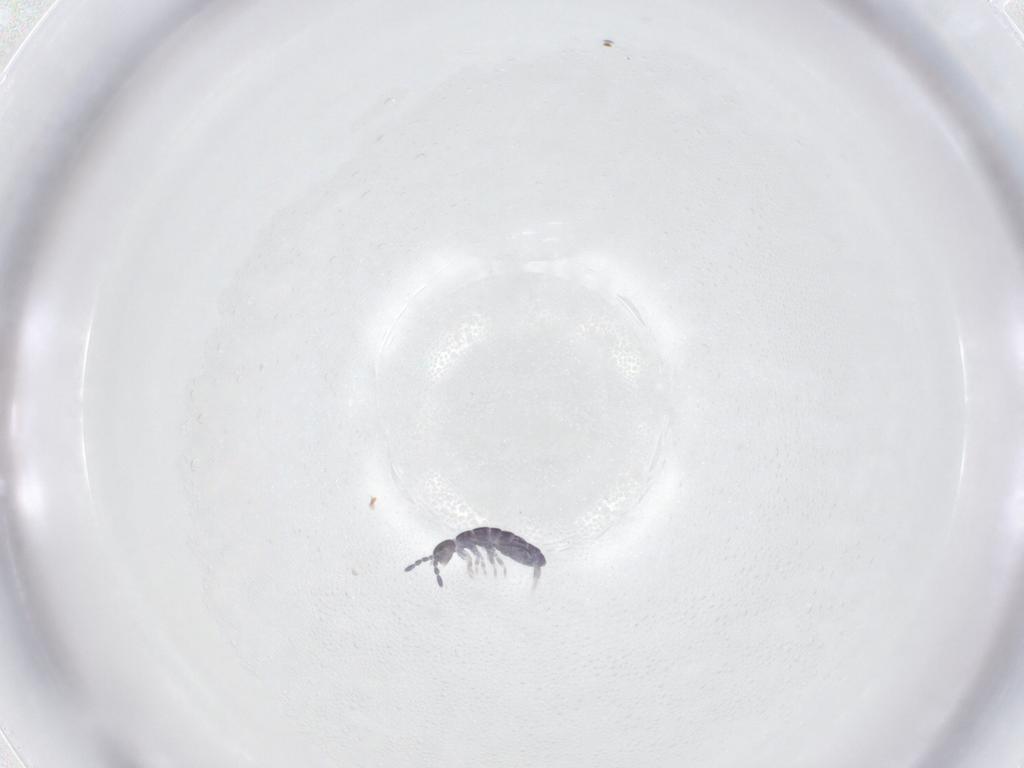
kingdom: Animalia
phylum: Arthropoda
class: Collembola
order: Entomobryomorpha
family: Isotomidae
